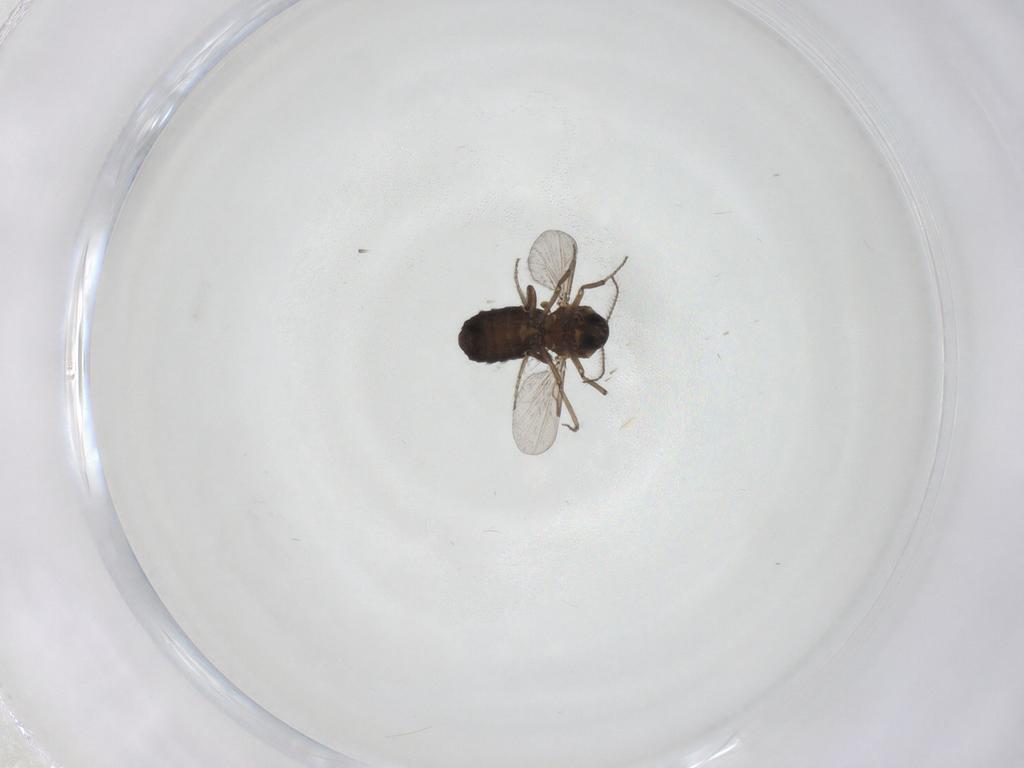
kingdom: Animalia
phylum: Arthropoda
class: Insecta
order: Diptera
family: Ceratopogonidae
